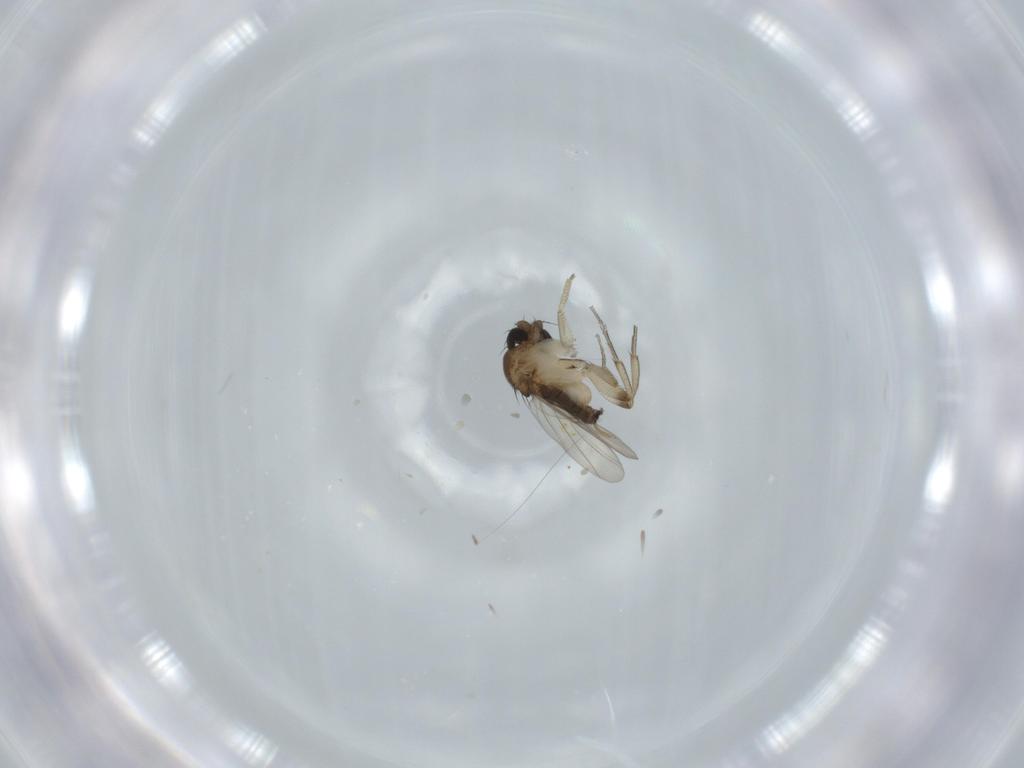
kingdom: Animalia
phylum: Arthropoda
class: Insecta
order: Diptera
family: Phoridae
